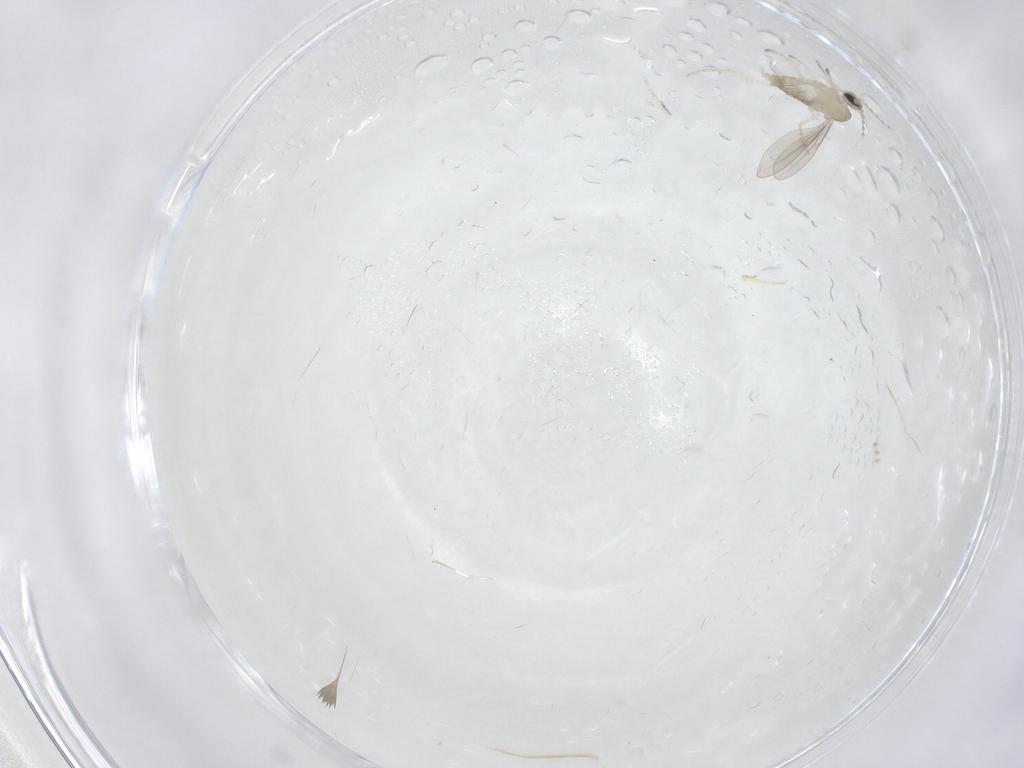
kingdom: Animalia
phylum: Arthropoda
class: Insecta
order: Diptera
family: Cecidomyiidae
